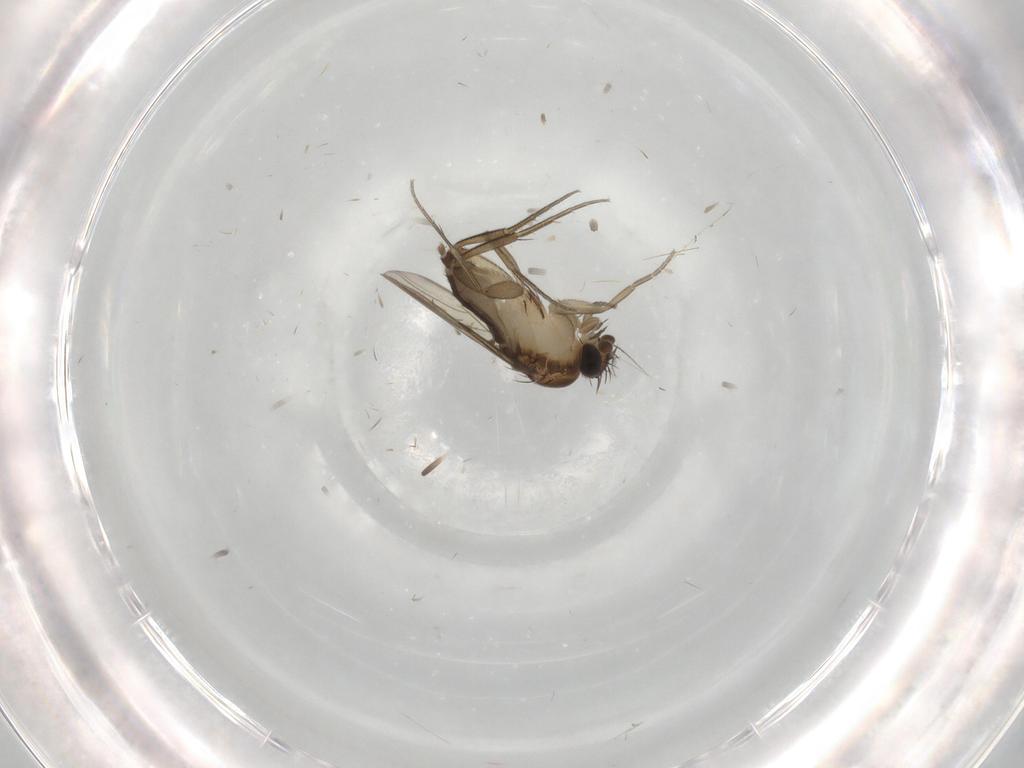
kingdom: Animalia
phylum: Arthropoda
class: Insecta
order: Diptera
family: Phoridae
